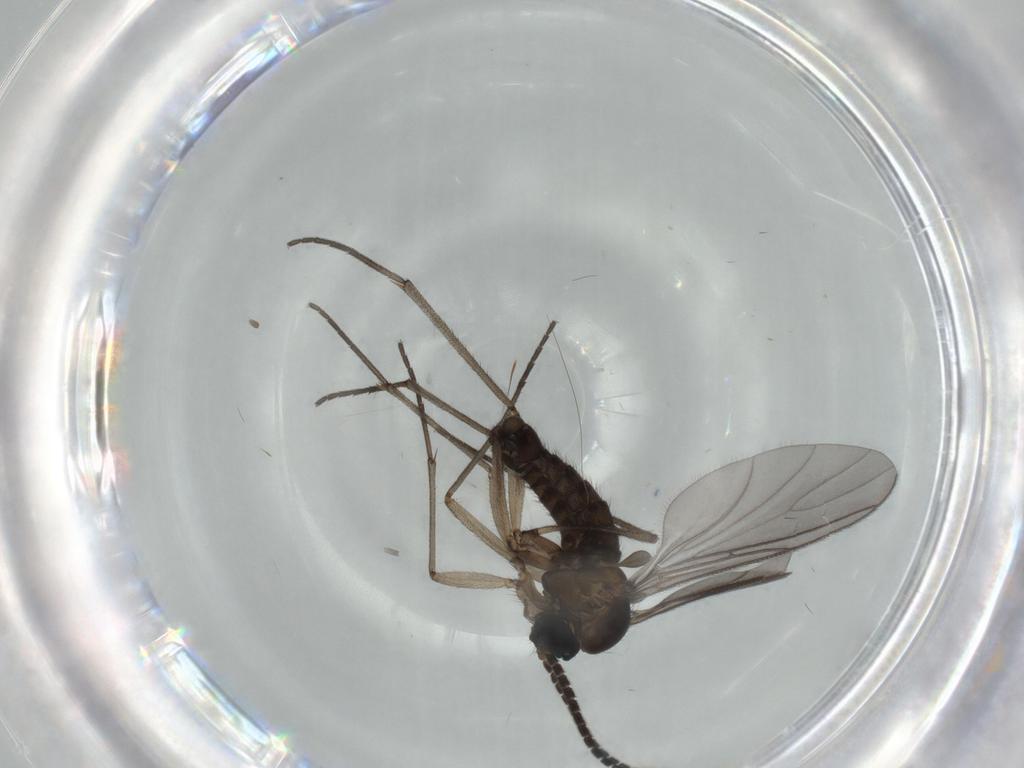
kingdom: Animalia
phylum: Arthropoda
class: Insecta
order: Diptera
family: Sciaridae
